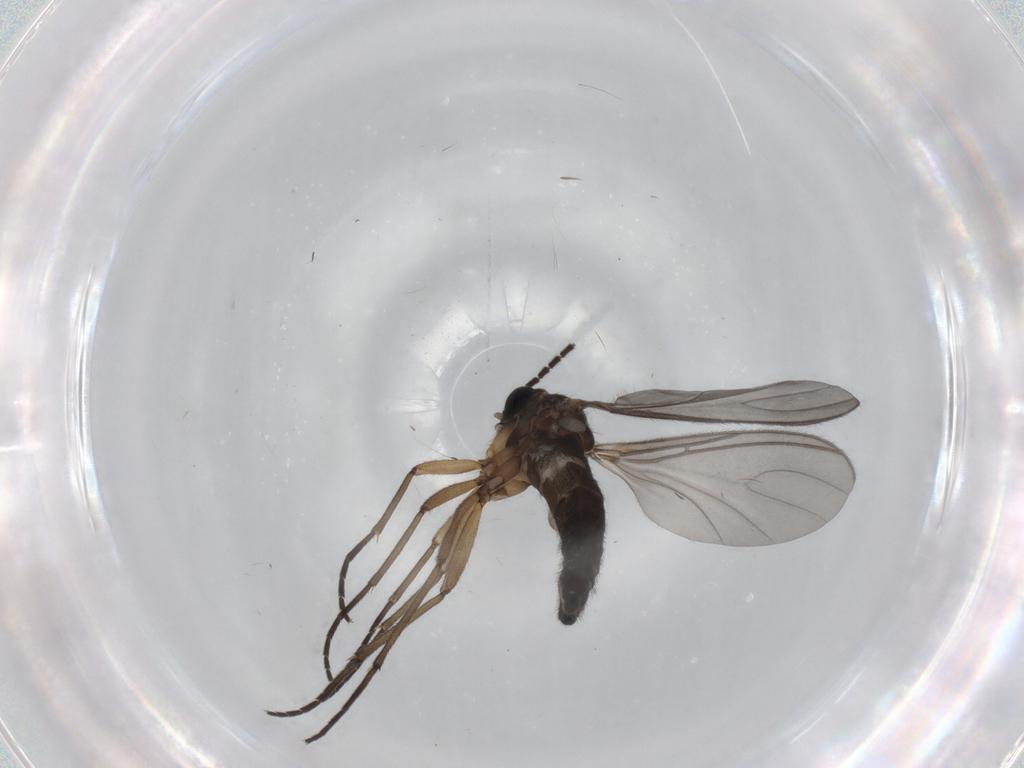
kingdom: Animalia
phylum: Arthropoda
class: Insecta
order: Diptera
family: Sciaridae
